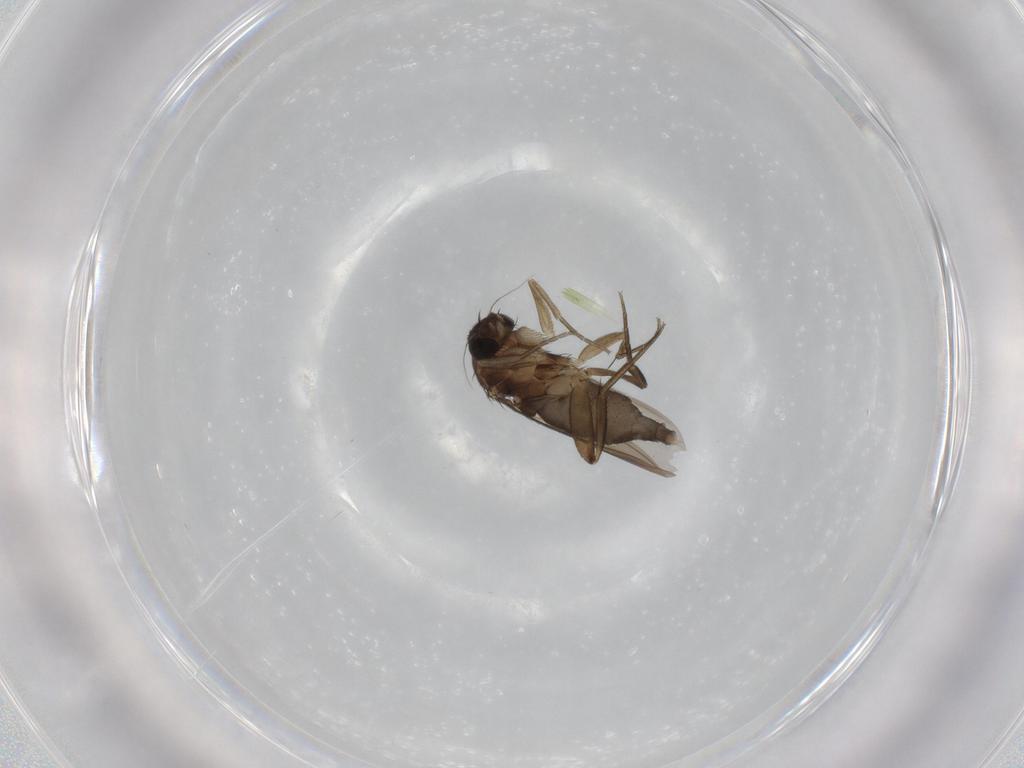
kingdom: Animalia
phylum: Arthropoda
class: Insecta
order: Diptera
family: Phoridae
